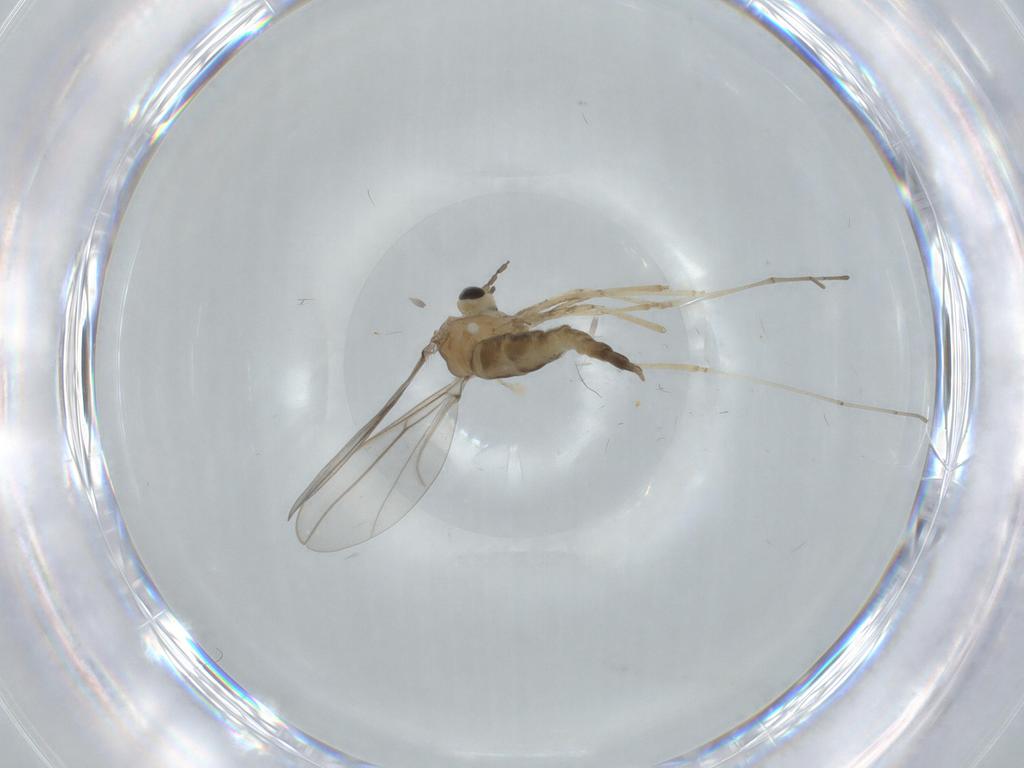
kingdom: Animalia
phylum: Arthropoda
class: Insecta
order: Diptera
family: Cecidomyiidae
